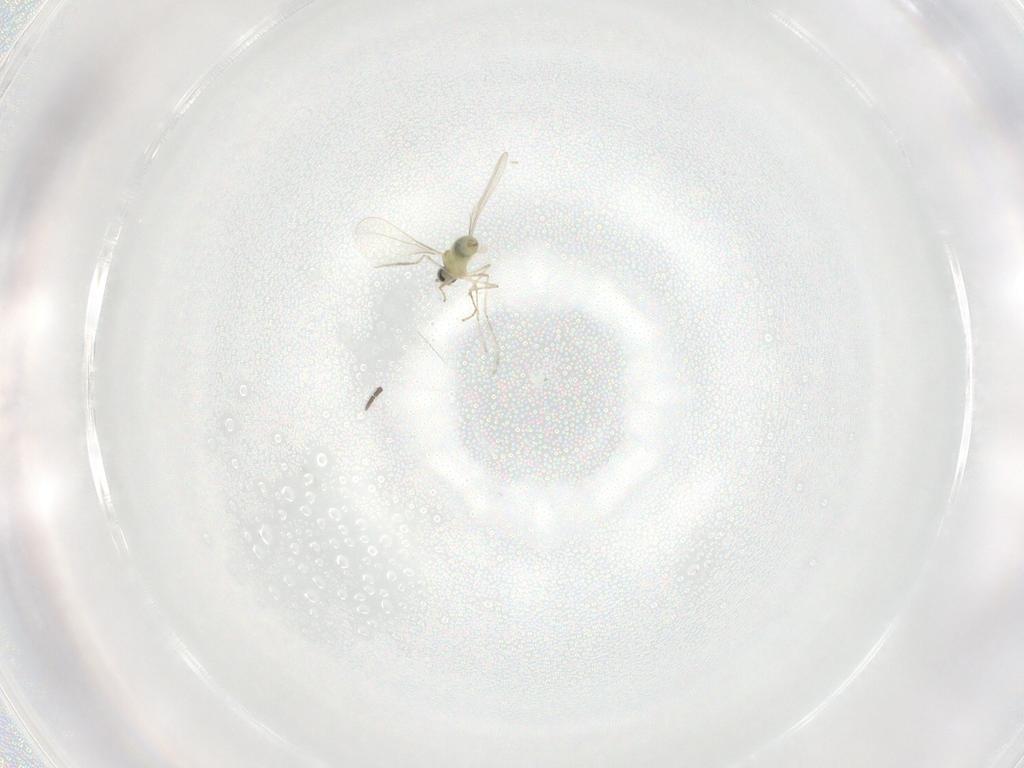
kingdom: Animalia
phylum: Arthropoda
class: Insecta
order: Diptera
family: Sciaridae
